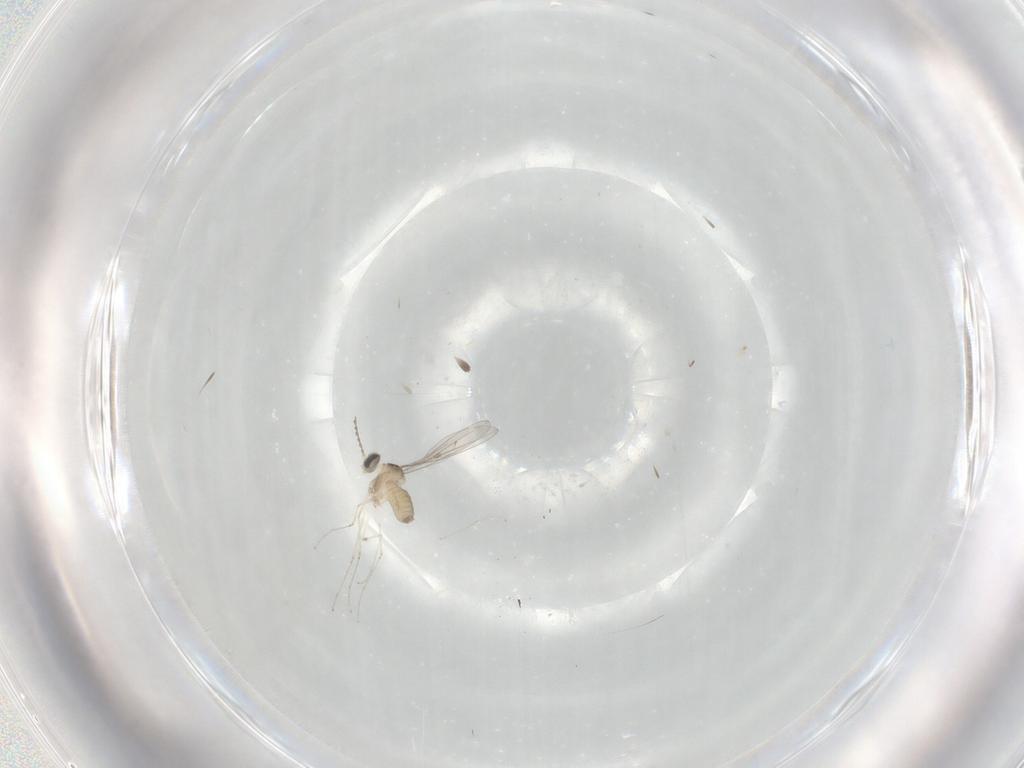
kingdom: Animalia
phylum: Arthropoda
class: Insecta
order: Diptera
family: Cecidomyiidae
